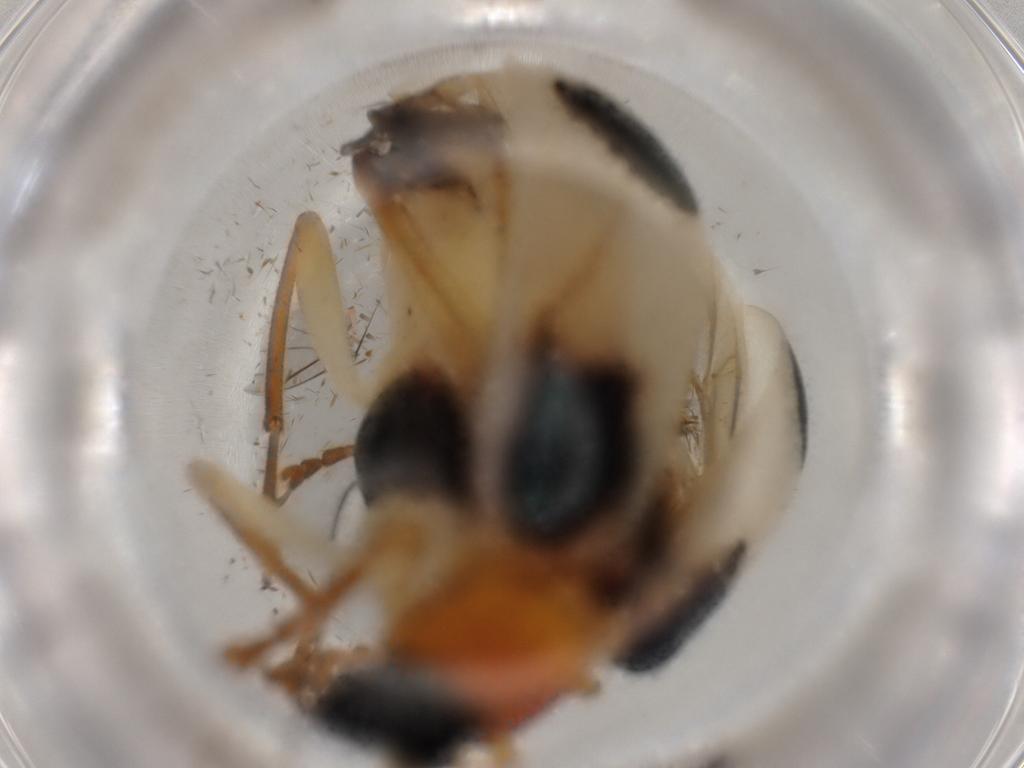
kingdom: Animalia
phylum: Arthropoda
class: Insecta
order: Coleoptera
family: Chrysomelidae
